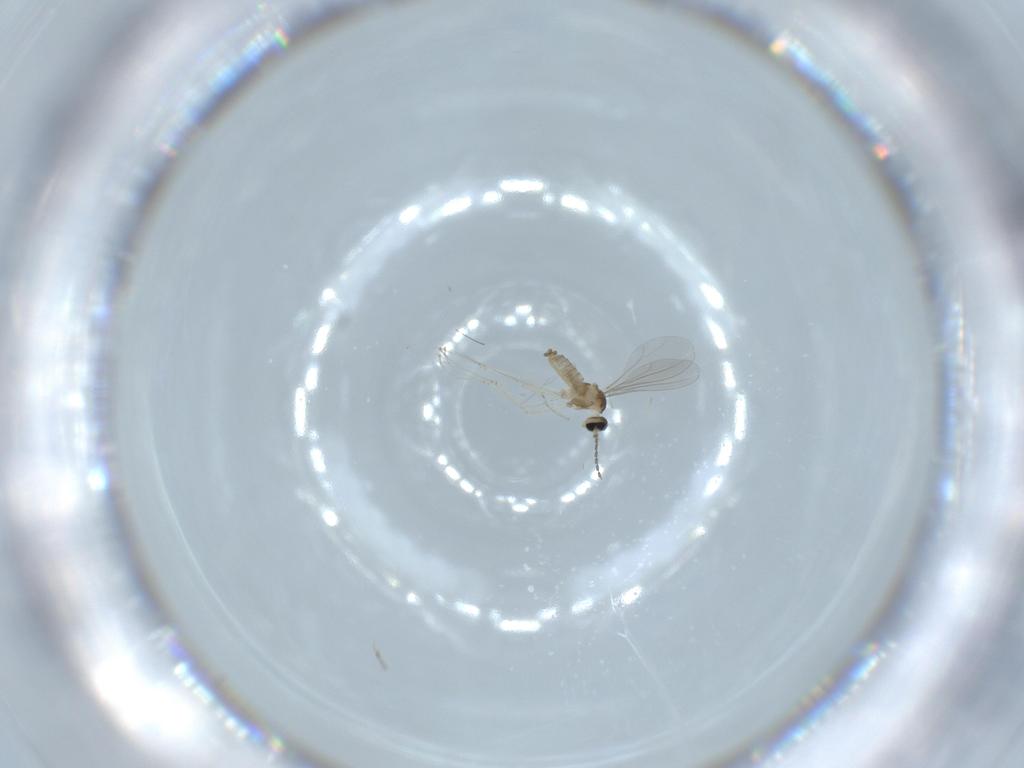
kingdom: Animalia
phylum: Arthropoda
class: Insecta
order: Diptera
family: Cecidomyiidae
